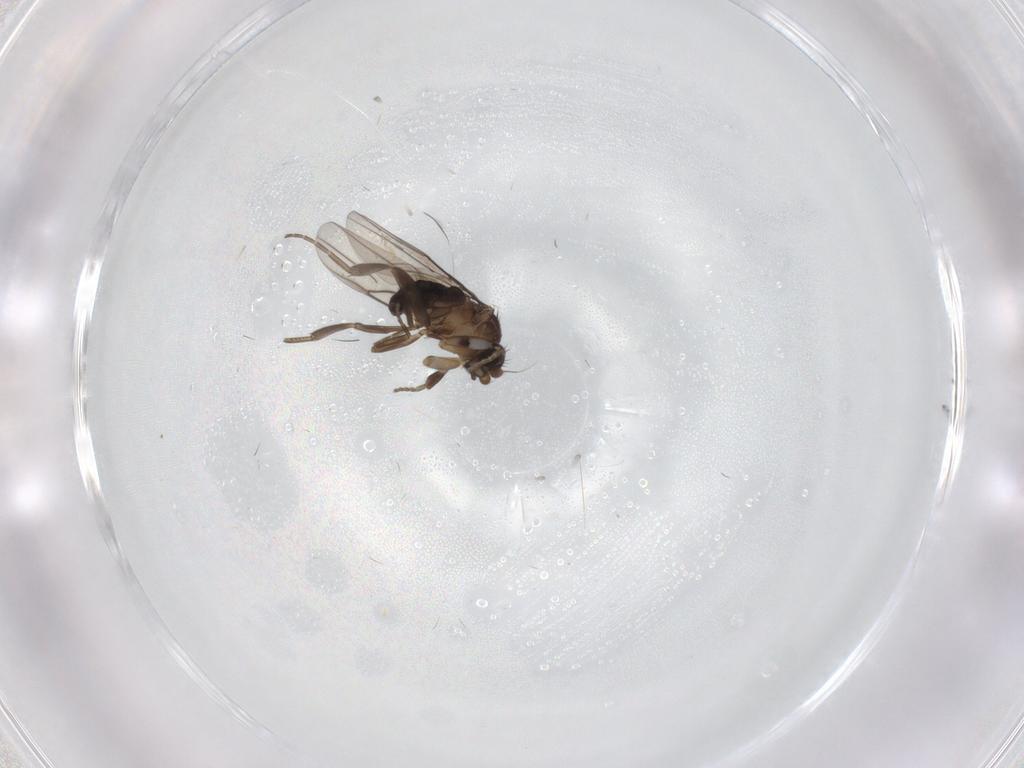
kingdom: Animalia
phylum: Arthropoda
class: Insecta
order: Diptera
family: Phoridae
